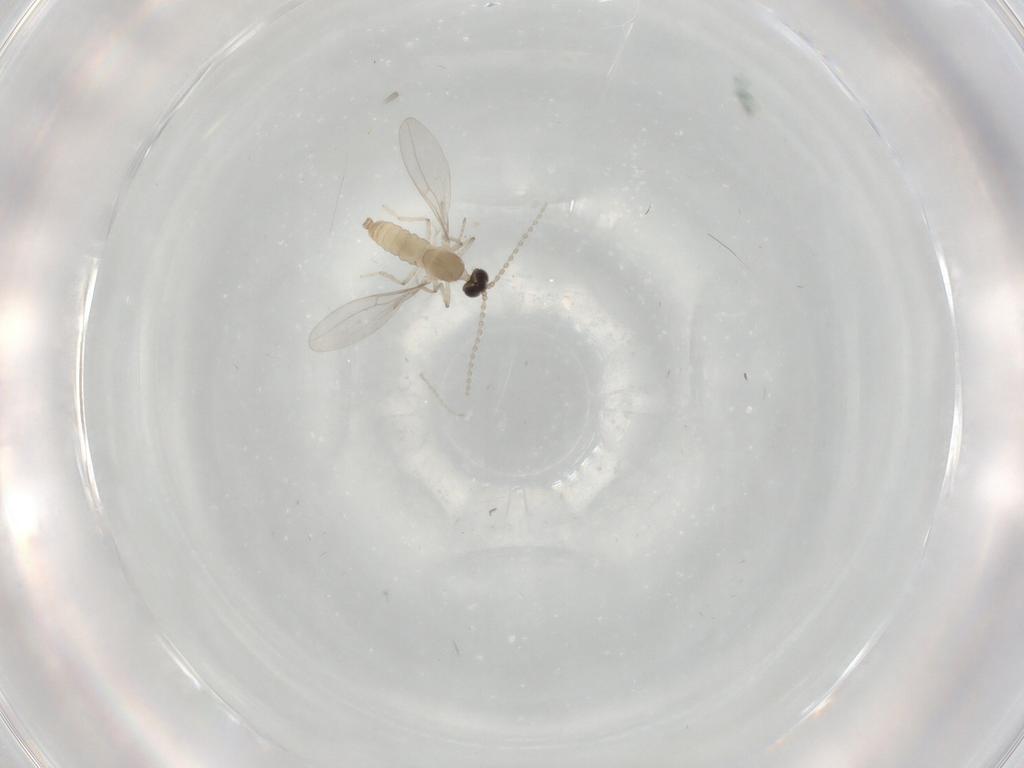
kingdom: Animalia
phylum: Arthropoda
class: Insecta
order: Diptera
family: Cecidomyiidae
